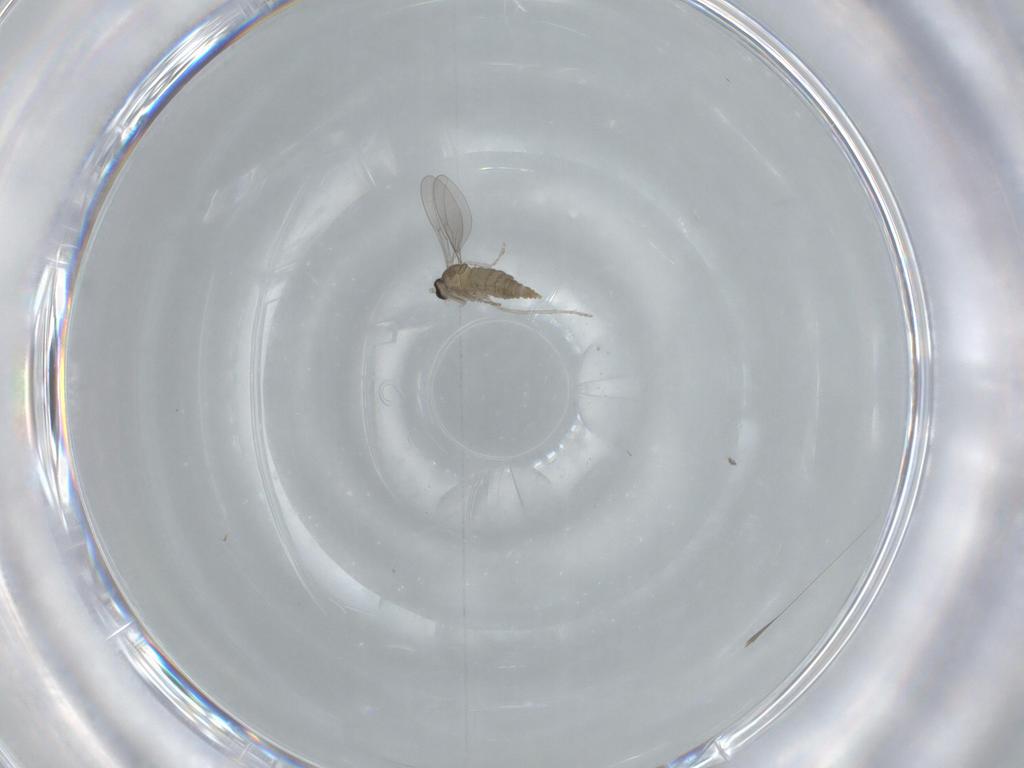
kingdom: Animalia
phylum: Arthropoda
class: Insecta
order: Diptera
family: Cecidomyiidae
